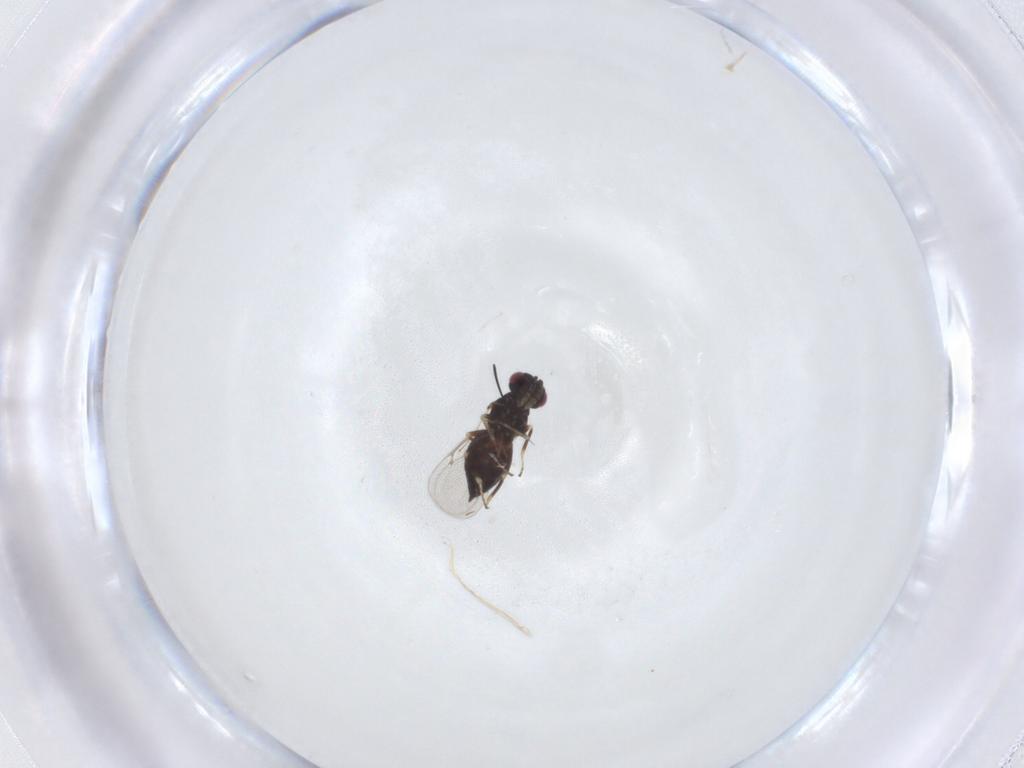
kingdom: Animalia
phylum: Arthropoda
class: Insecta
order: Hymenoptera
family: Eulophidae
